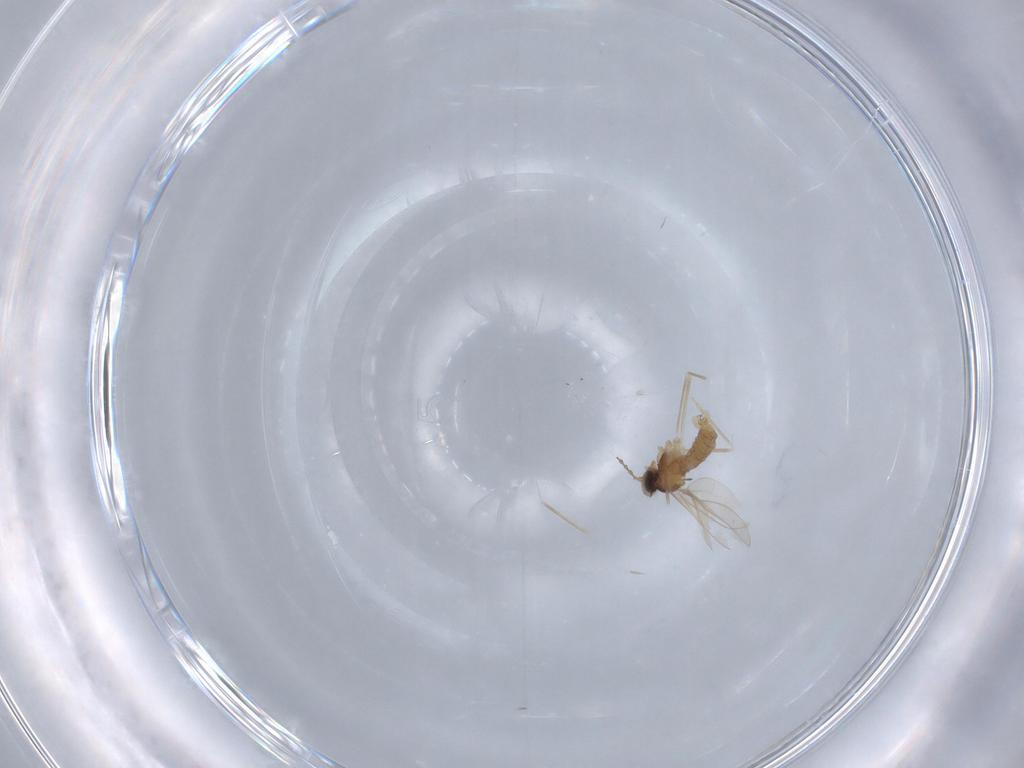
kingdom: Animalia
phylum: Arthropoda
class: Insecta
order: Diptera
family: Chironomidae
